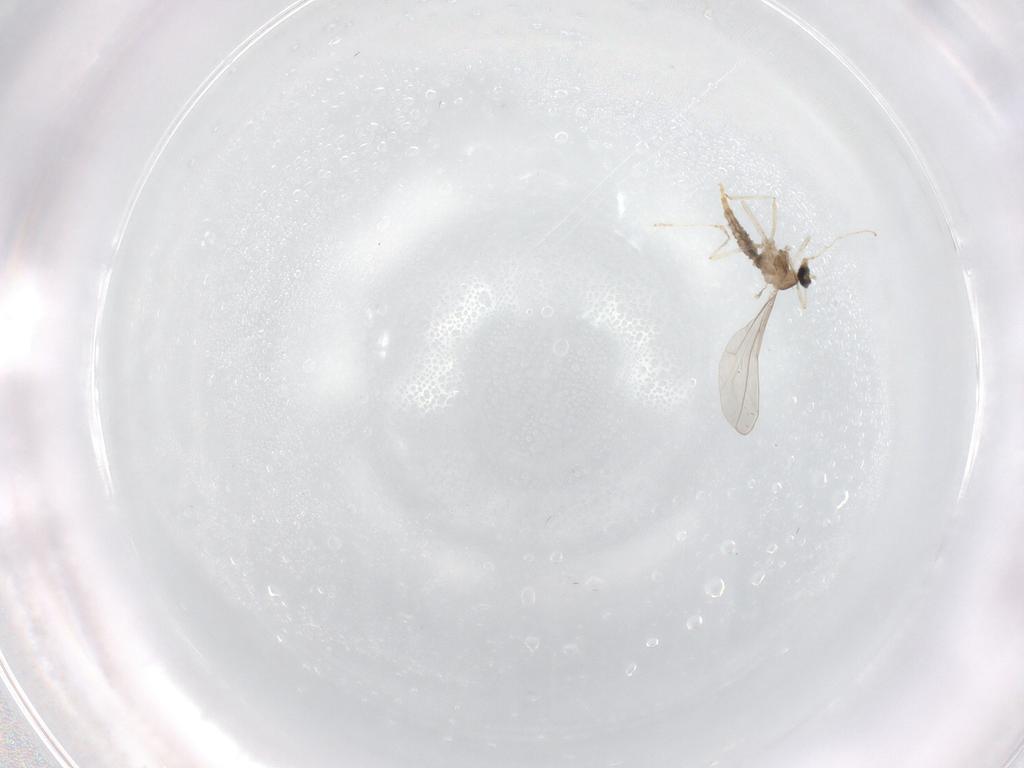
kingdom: Animalia
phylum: Arthropoda
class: Insecta
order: Diptera
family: Cecidomyiidae
